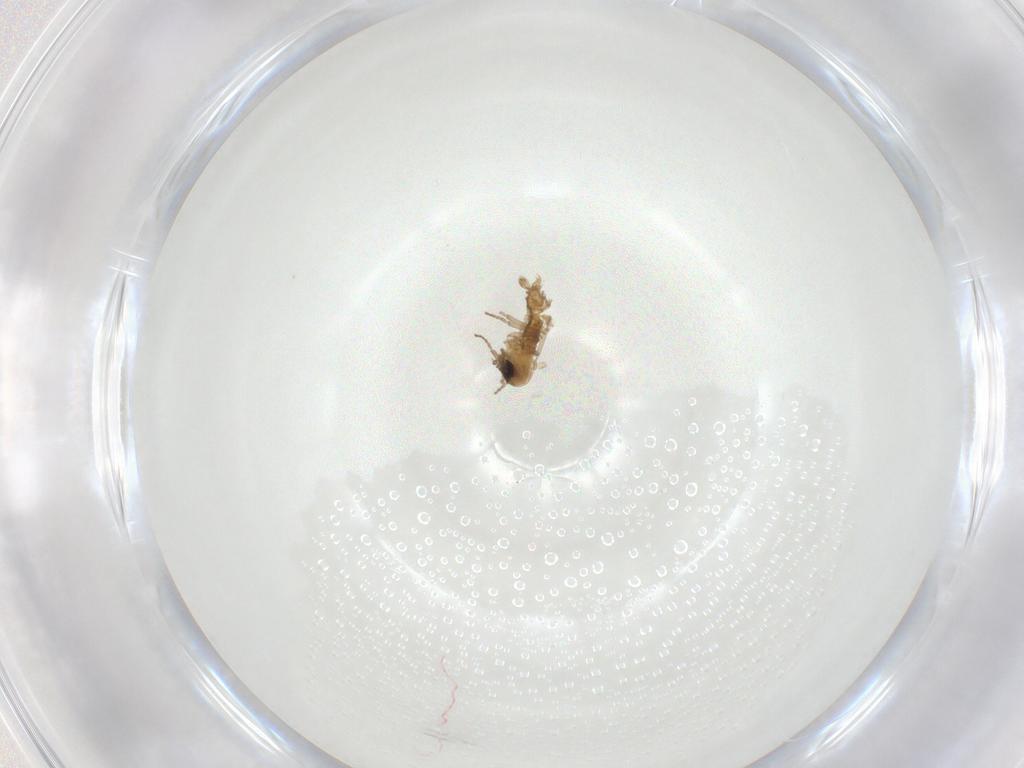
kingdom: Animalia
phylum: Arthropoda
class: Insecta
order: Diptera
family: Psychodidae
